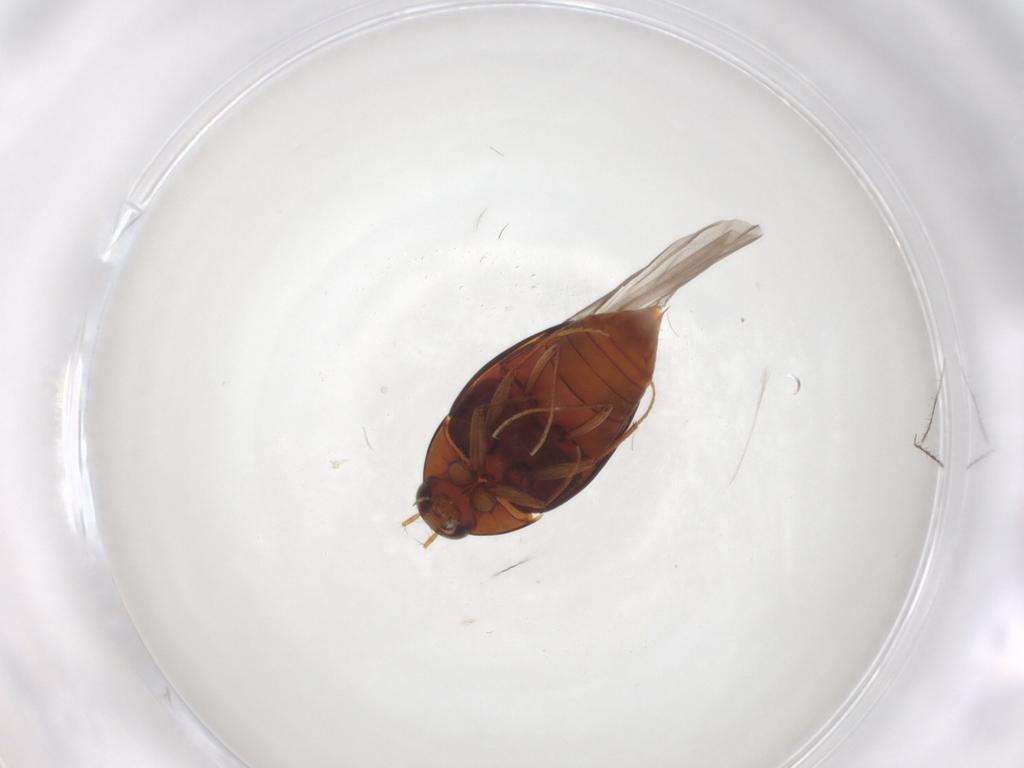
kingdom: Animalia
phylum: Arthropoda
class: Insecta
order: Coleoptera
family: Staphylinidae
